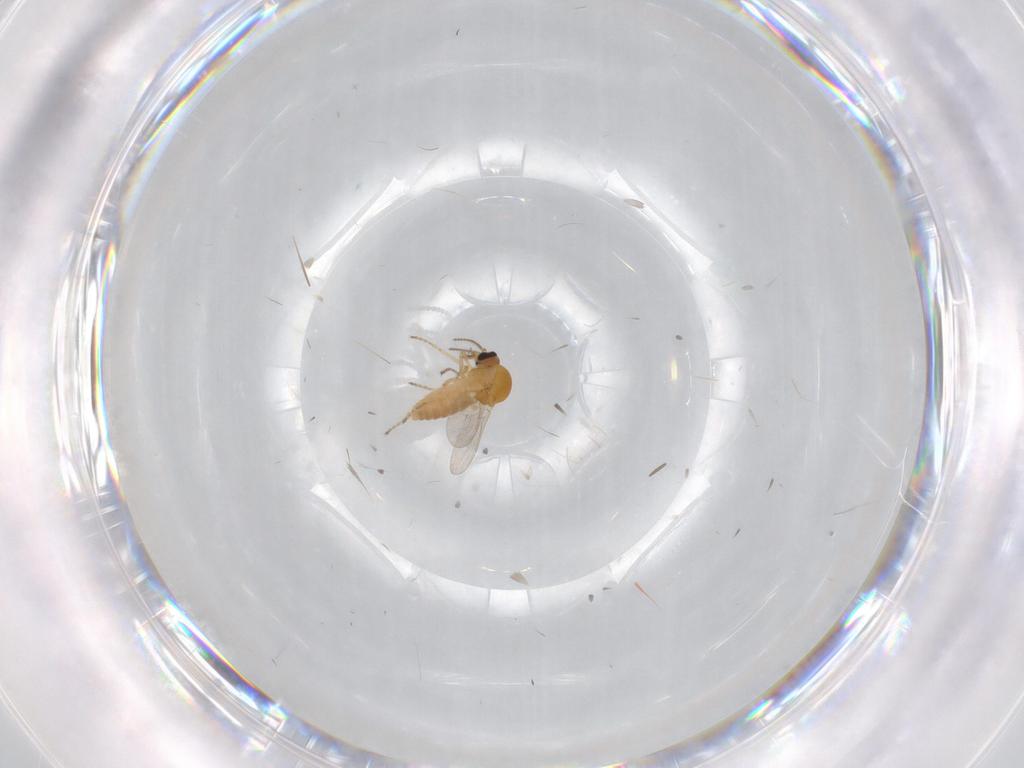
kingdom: Animalia
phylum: Arthropoda
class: Insecta
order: Diptera
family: Ceratopogonidae
